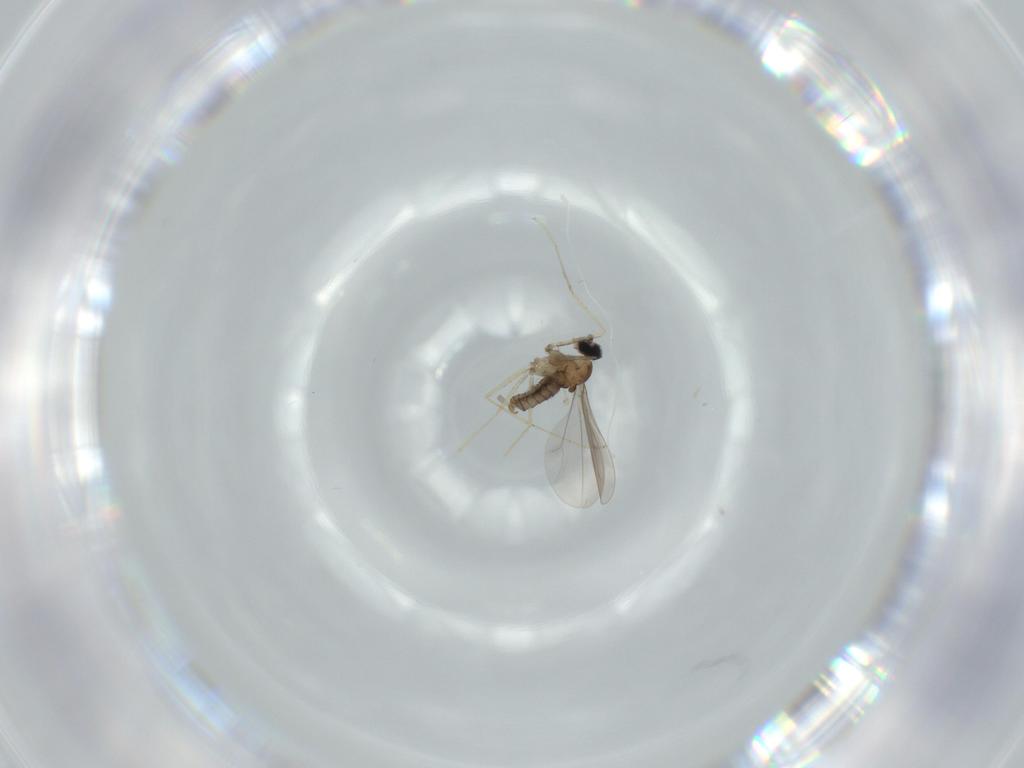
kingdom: Animalia
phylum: Arthropoda
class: Insecta
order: Diptera
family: Cecidomyiidae
